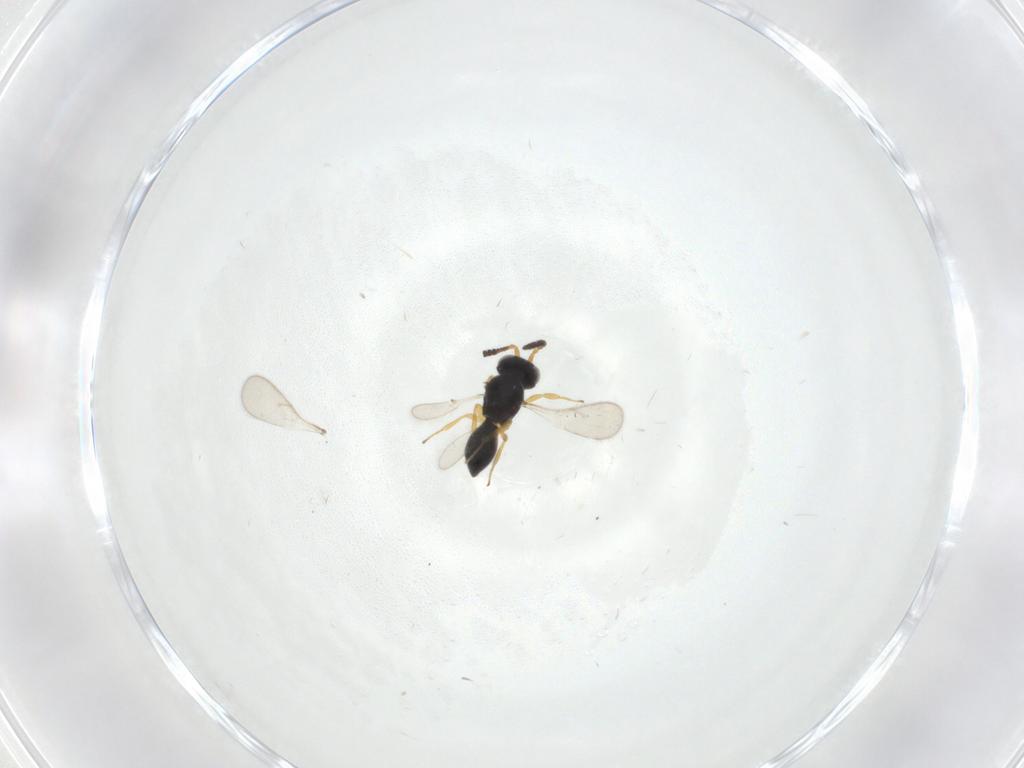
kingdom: Animalia
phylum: Arthropoda
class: Insecta
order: Hymenoptera
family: Scelionidae
